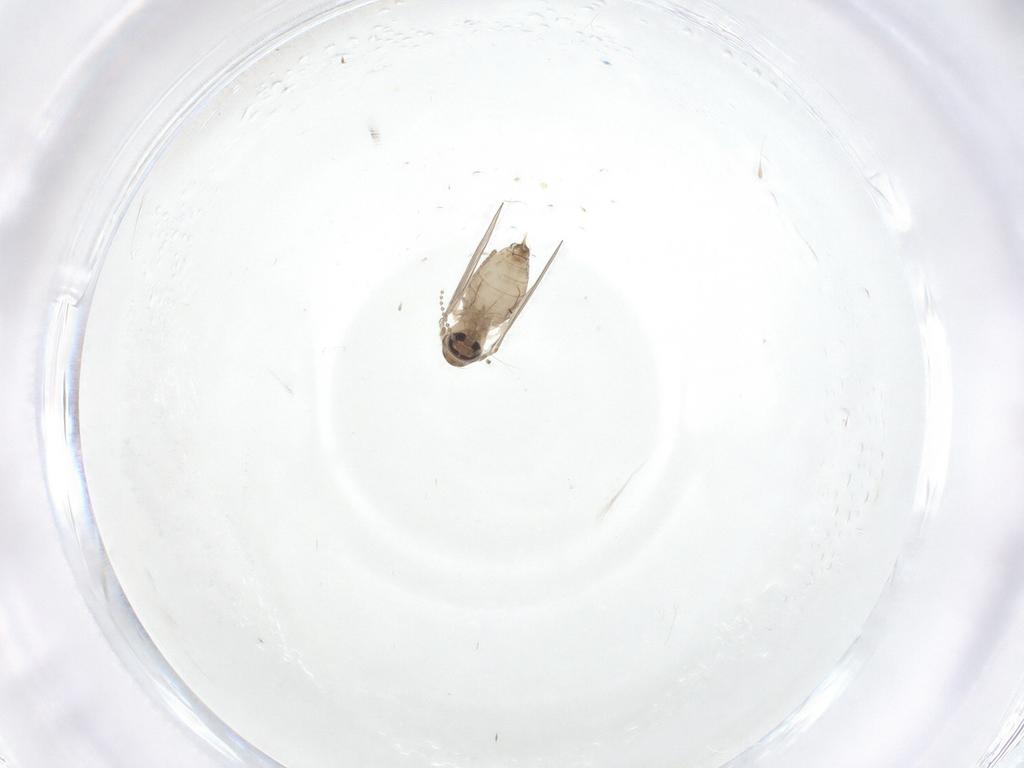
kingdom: Animalia
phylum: Arthropoda
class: Insecta
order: Diptera
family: Psychodidae
